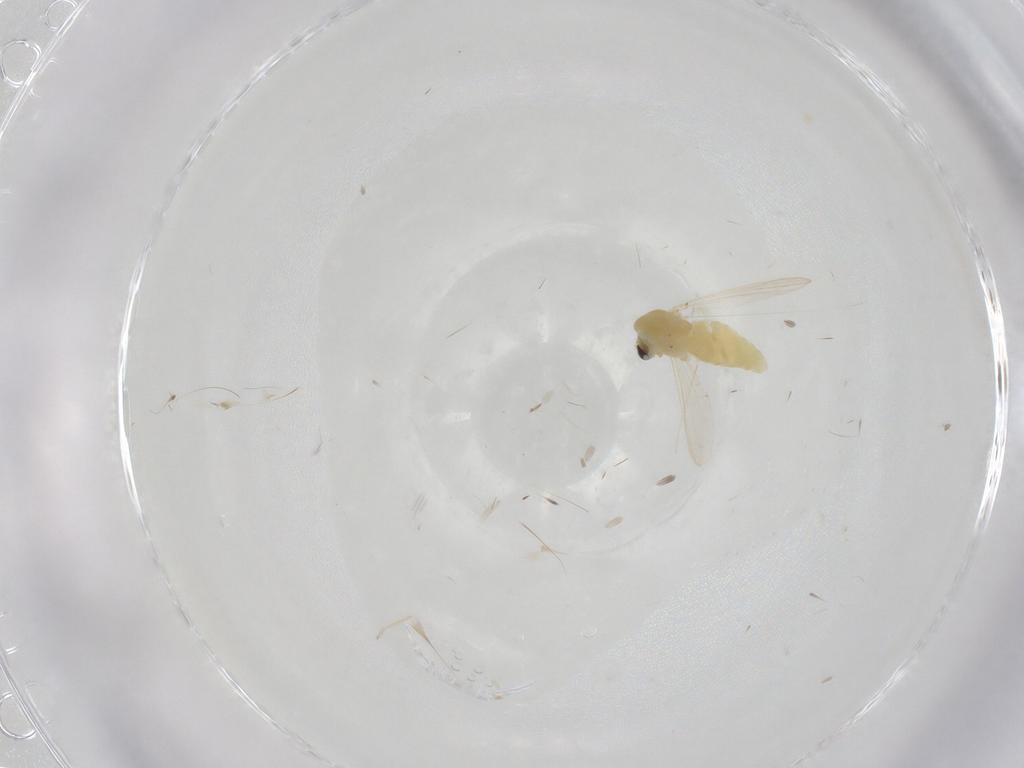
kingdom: Animalia
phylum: Arthropoda
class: Insecta
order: Diptera
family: Chironomidae
